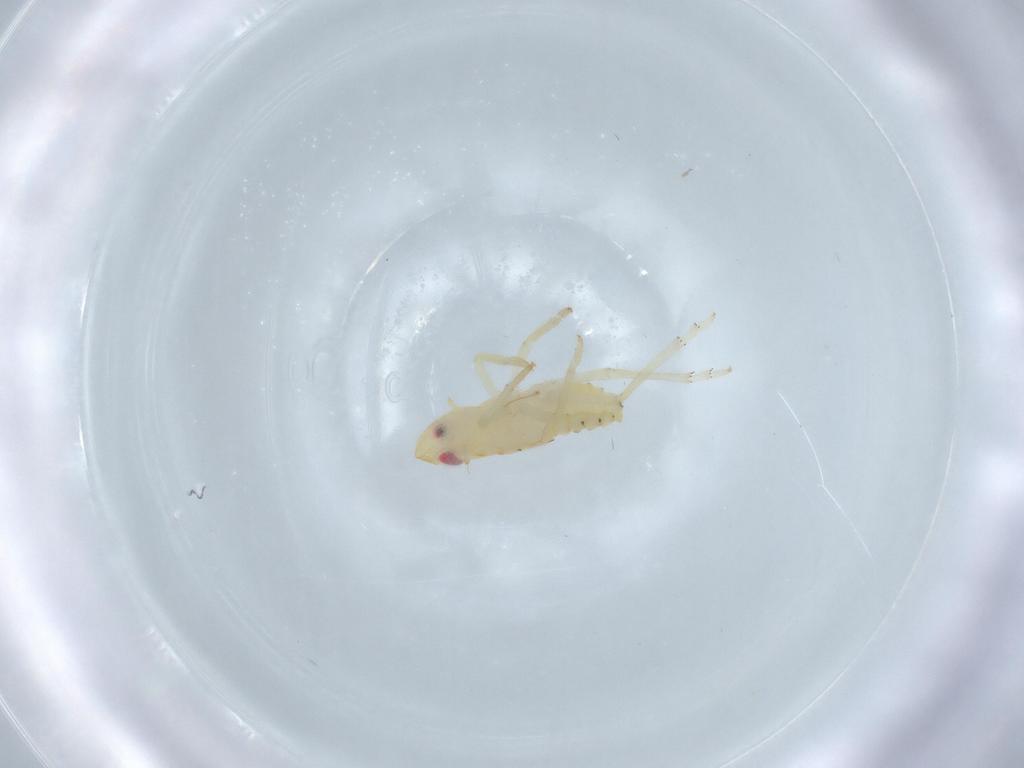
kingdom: Animalia
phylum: Arthropoda
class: Insecta
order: Hemiptera
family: Tropiduchidae
